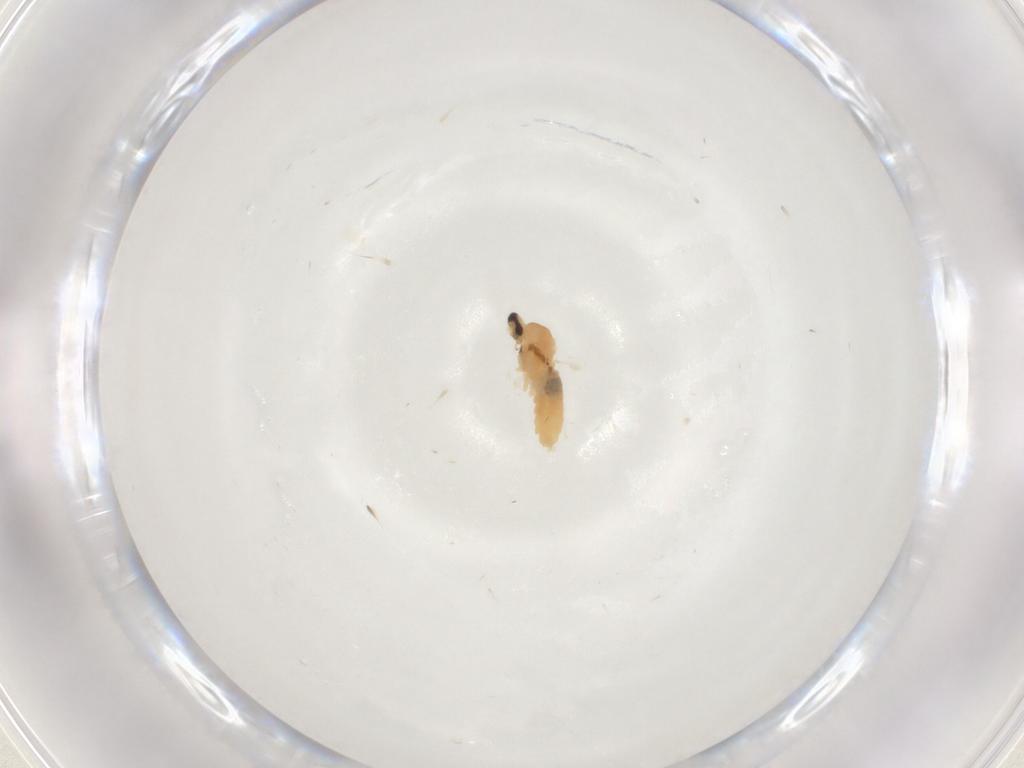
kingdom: Animalia
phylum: Arthropoda
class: Insecta
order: Diptera
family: Cecidomyiidae
